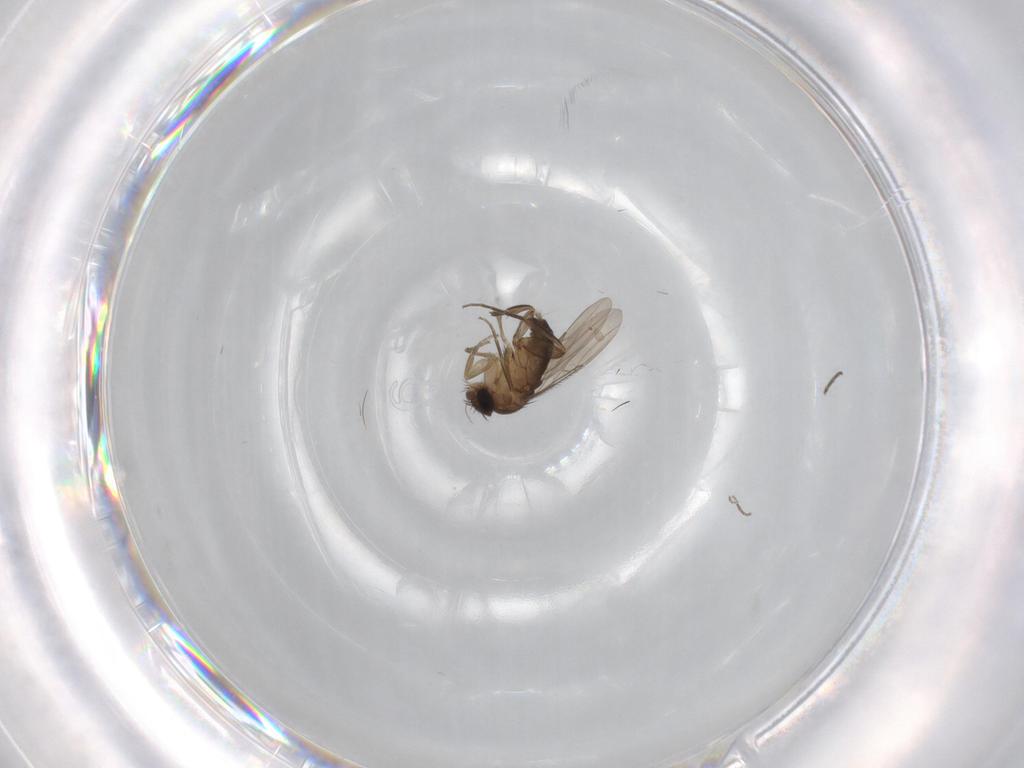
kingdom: Animalia
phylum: Arthropoda
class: Insecta
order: Diptera
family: Phoridae
